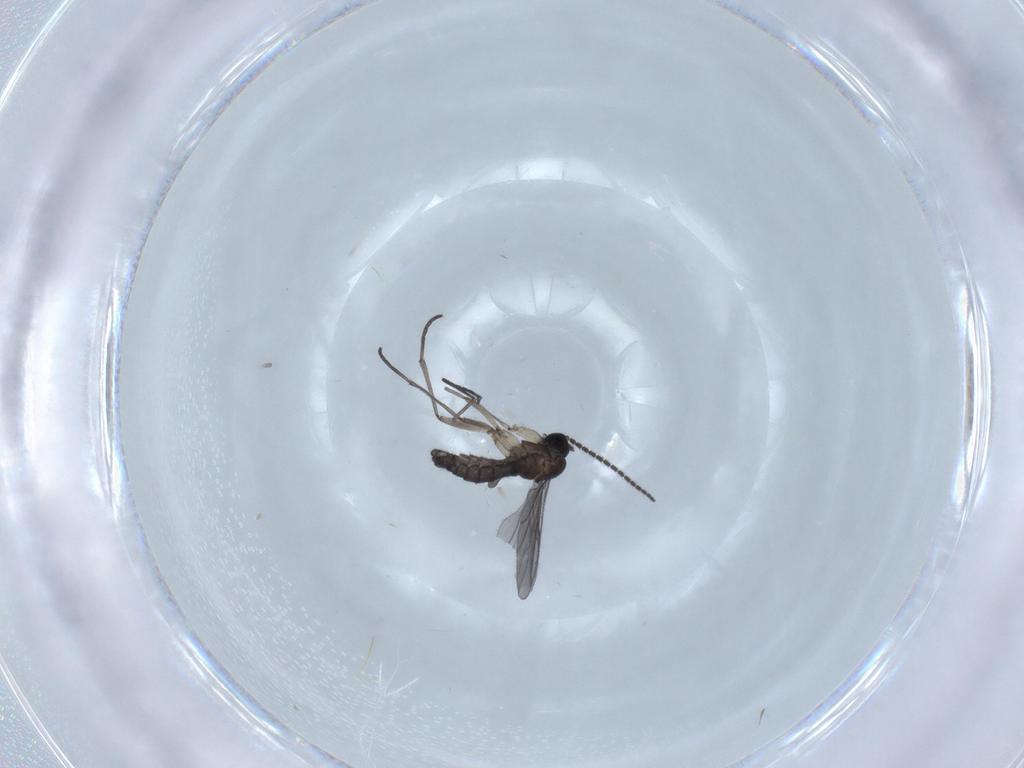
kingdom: Animalia
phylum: Arthropoda
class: Insecta
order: Diptera
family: Sciaridae
